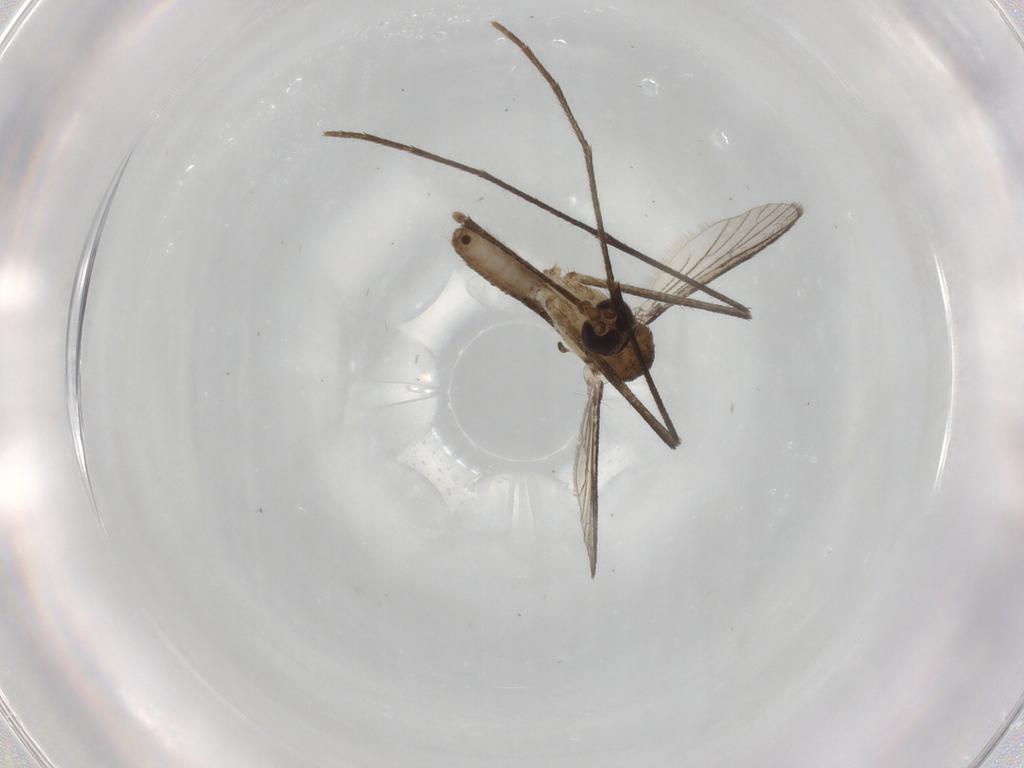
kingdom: Animalia
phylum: Arthropoda
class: Insecta
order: Diptera
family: Culicidae
